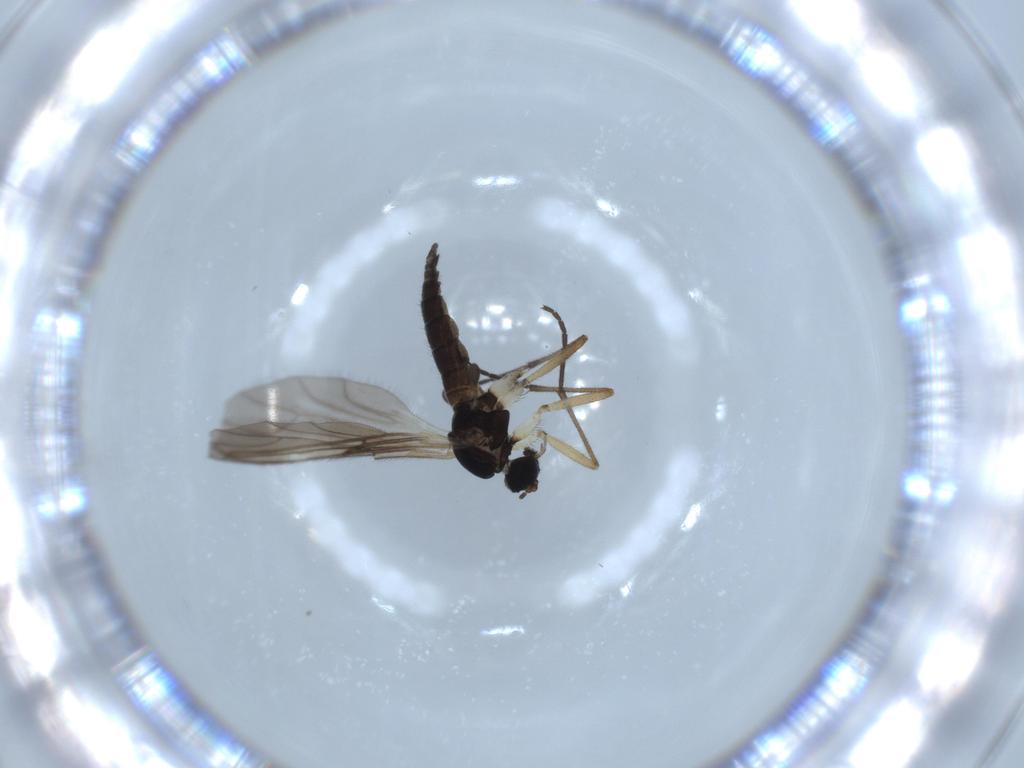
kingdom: Animalia
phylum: Arthropoda
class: Insecta
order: Diptera
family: Sciaridae
